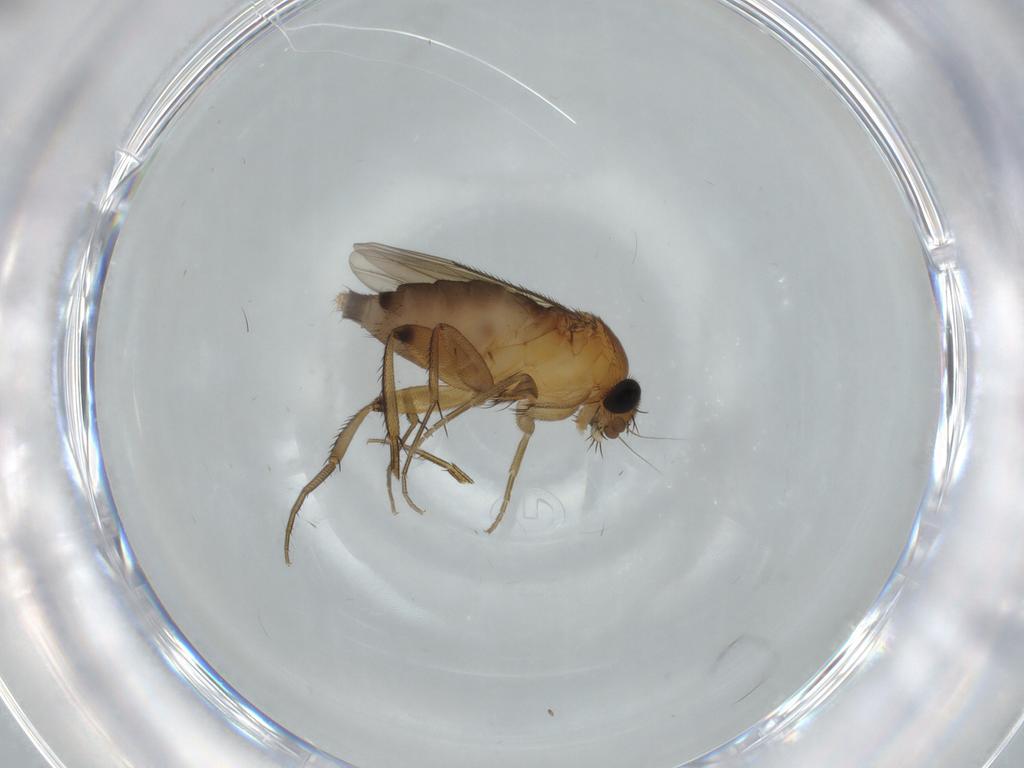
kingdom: Animalia
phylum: Arthropoda
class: Insecta
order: Diptera
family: Phoridae
